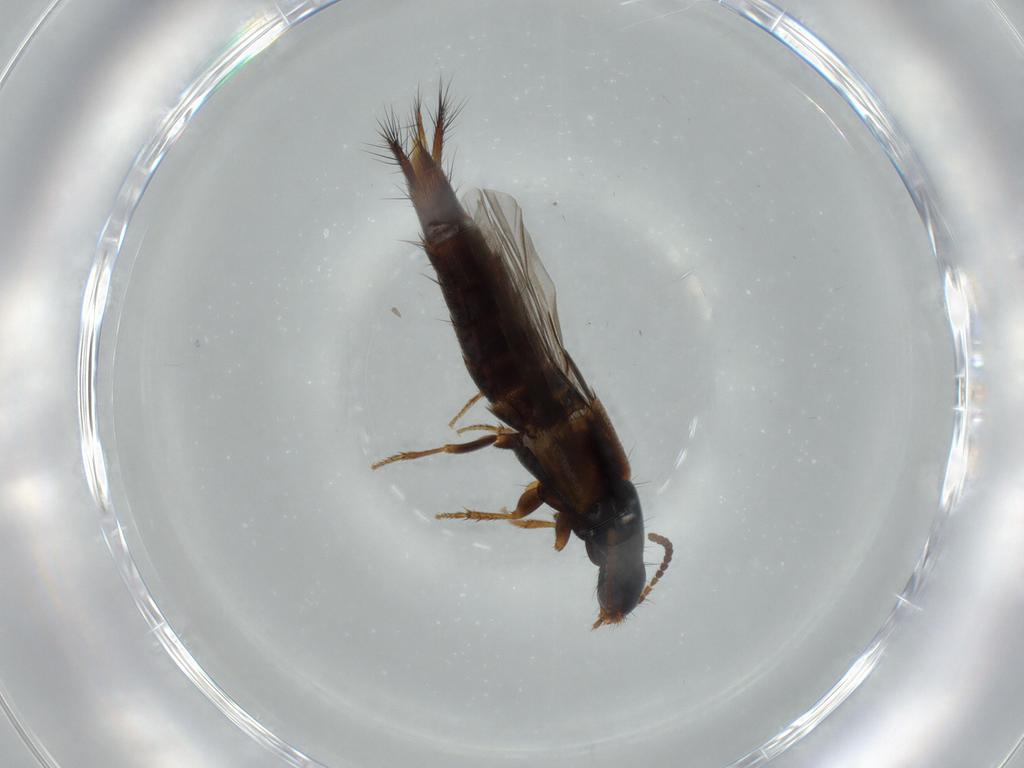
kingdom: Animalia
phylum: Arthropoda
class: Insecta
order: Coleoptera
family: Staphylinidae
